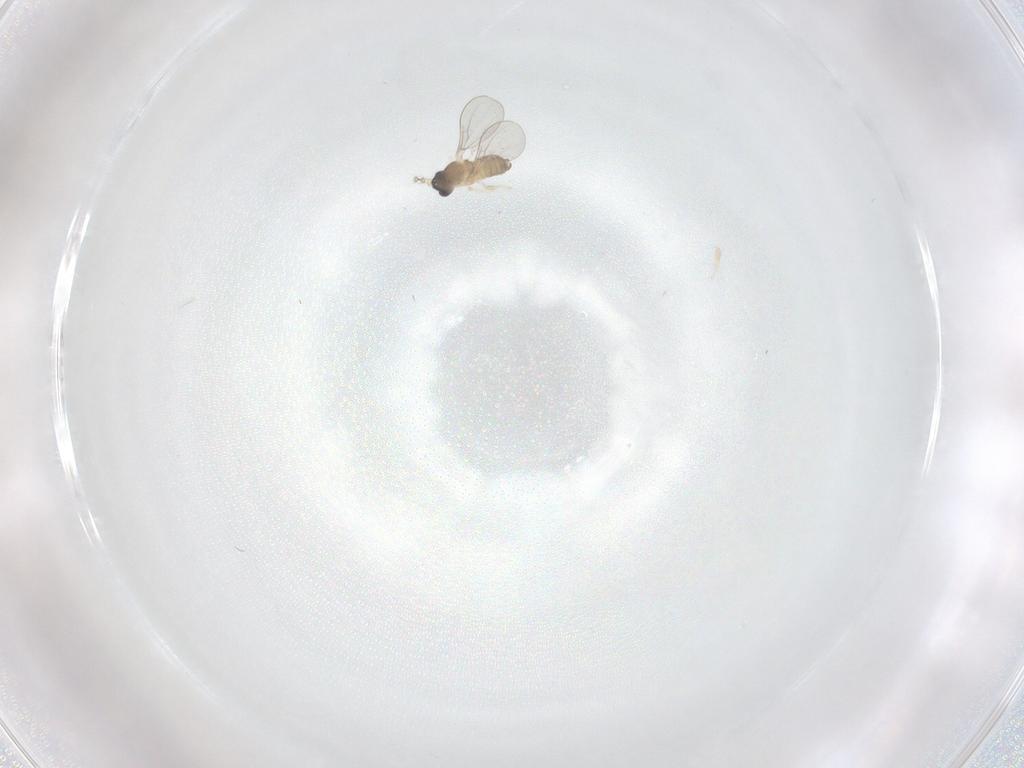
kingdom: Animalia
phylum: Arthropoda
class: Insecta
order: Diptera
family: Cecidomyiidae
